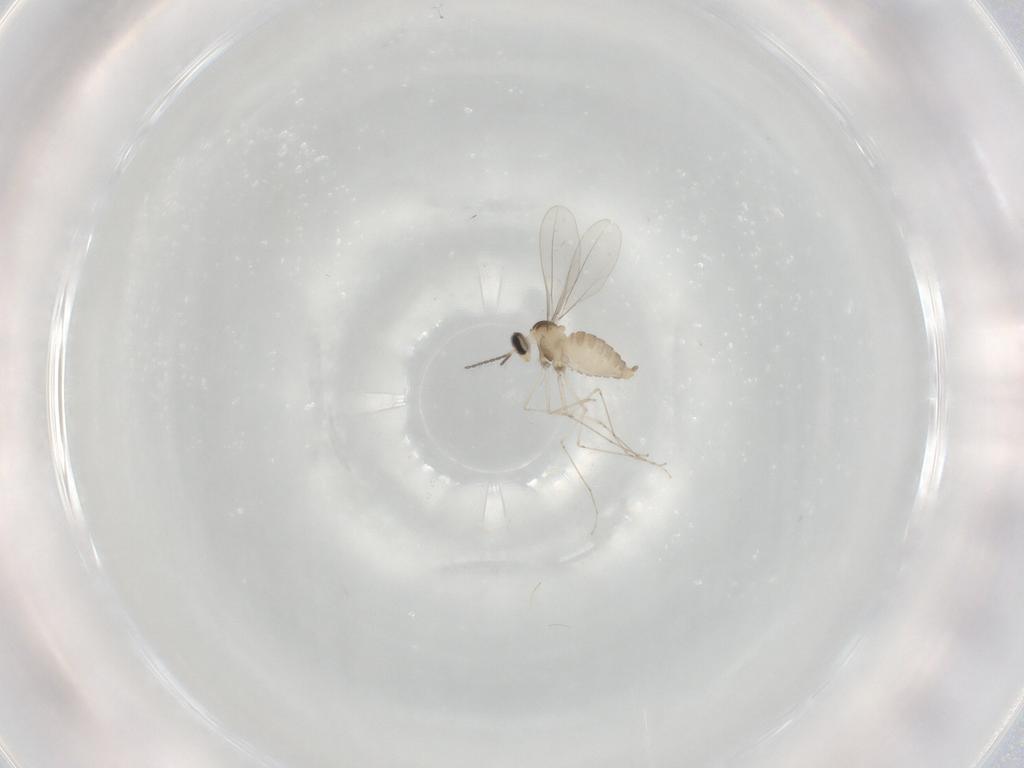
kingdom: Animalia
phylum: Arthropoda
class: Insecta
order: Diptera
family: Cecidomyiidae
